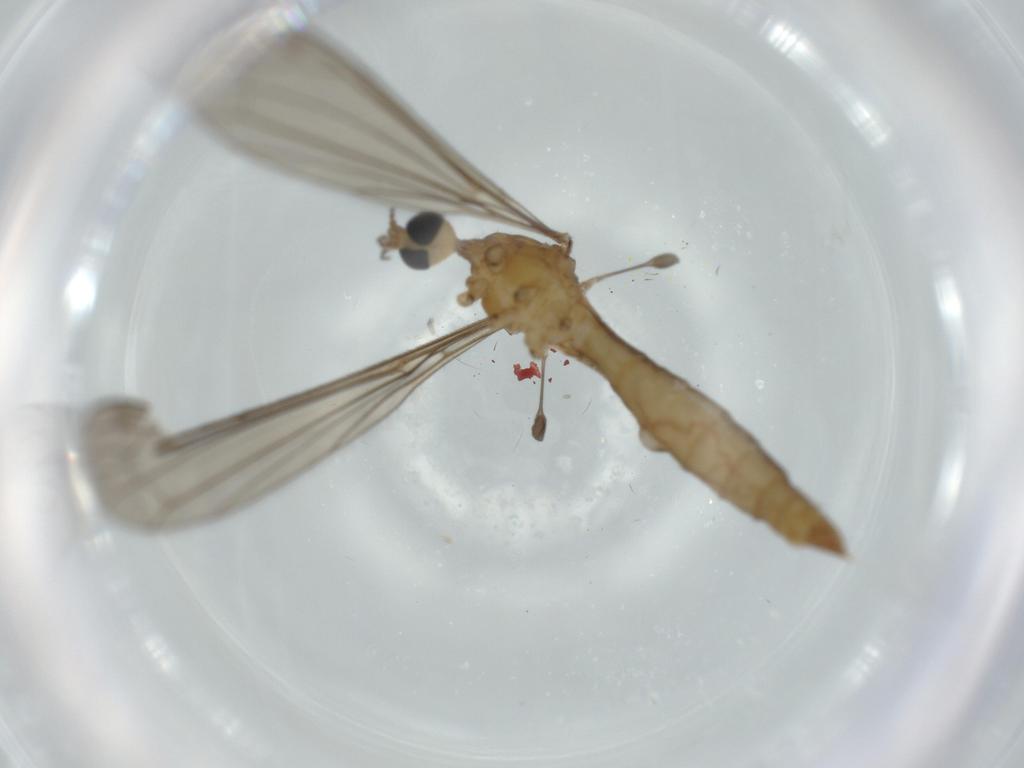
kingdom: Animalia
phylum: Arthropoda
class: Insecta
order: Diptera
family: Limoniidae
